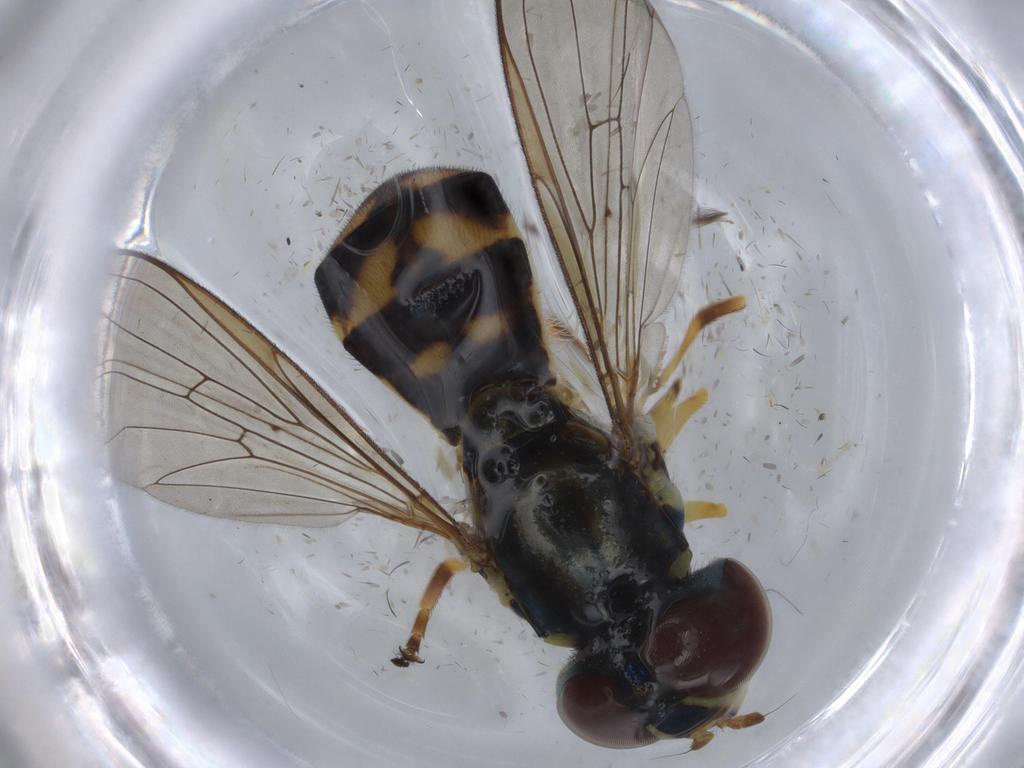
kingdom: Animalia
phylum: Arthropoda
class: Insecta
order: Diptera
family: Syrphidae
